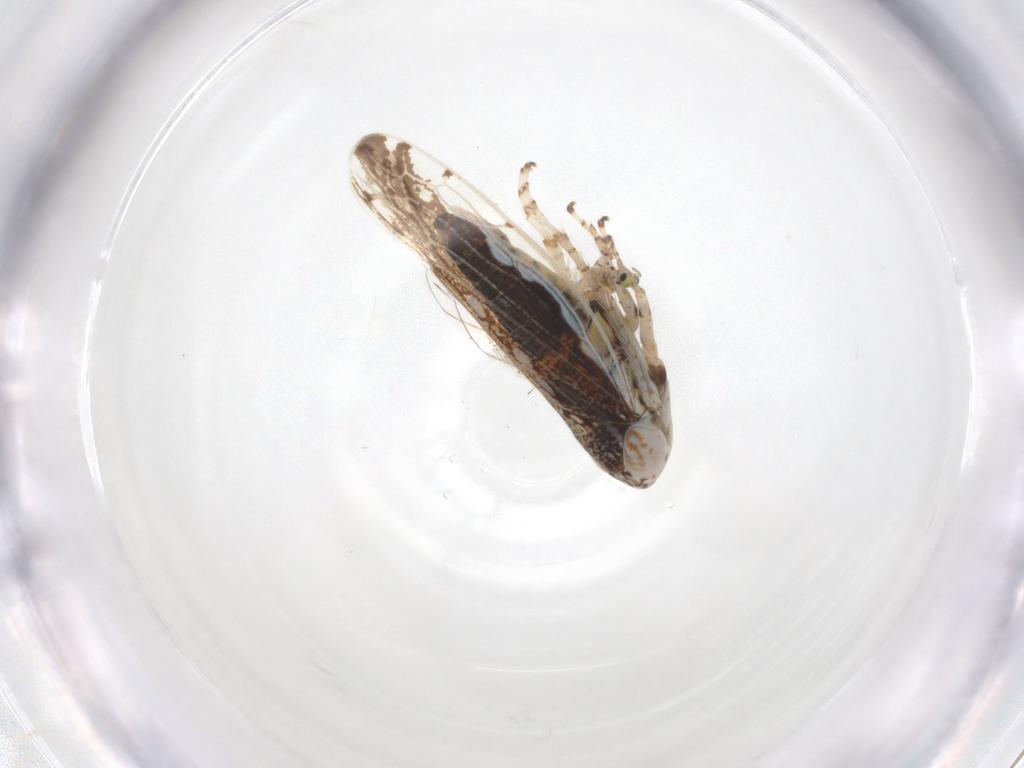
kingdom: Animalia
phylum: Arthropoda
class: Insecta
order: Hemiptera
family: Cicadellidae
